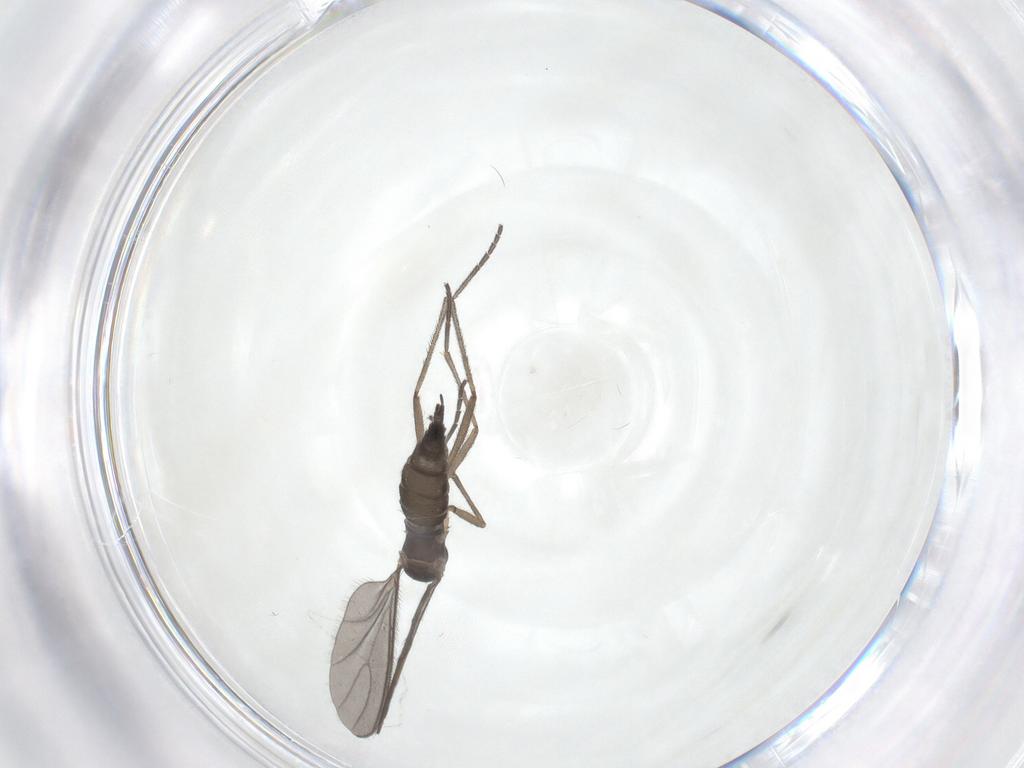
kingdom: Animalia
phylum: Arthropoda
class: Insecta
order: Diptera
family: Sciaridae
